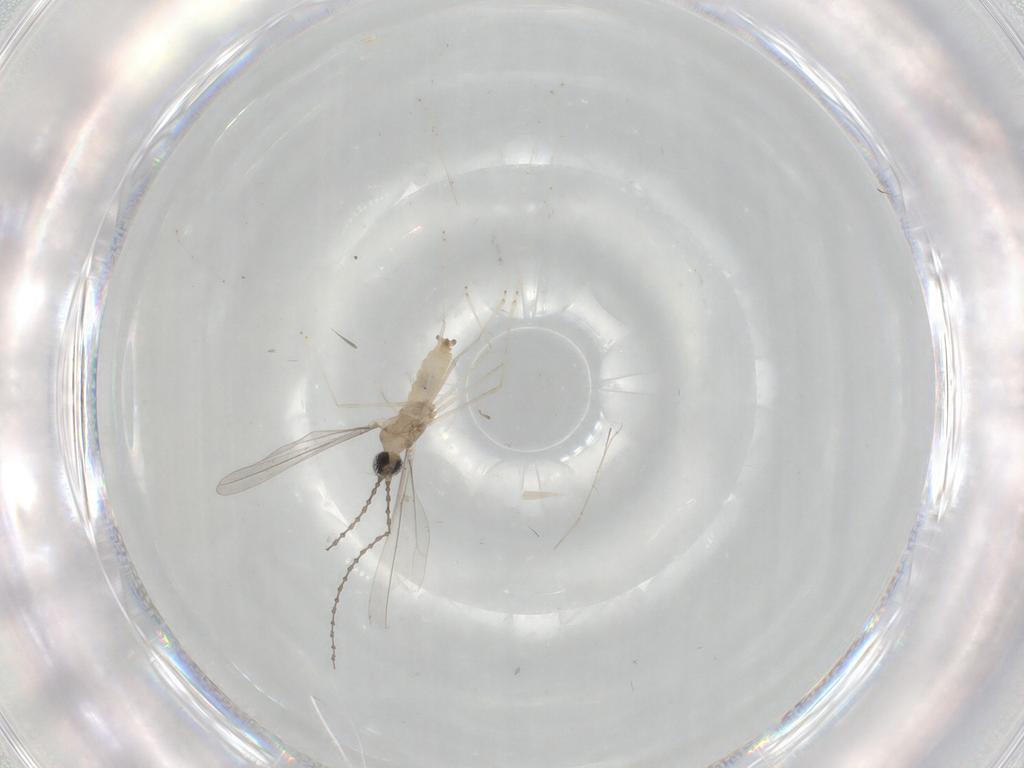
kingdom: Animalia
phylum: Arthropoda
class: Insecta
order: Diptera
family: Cecidomyiidae
